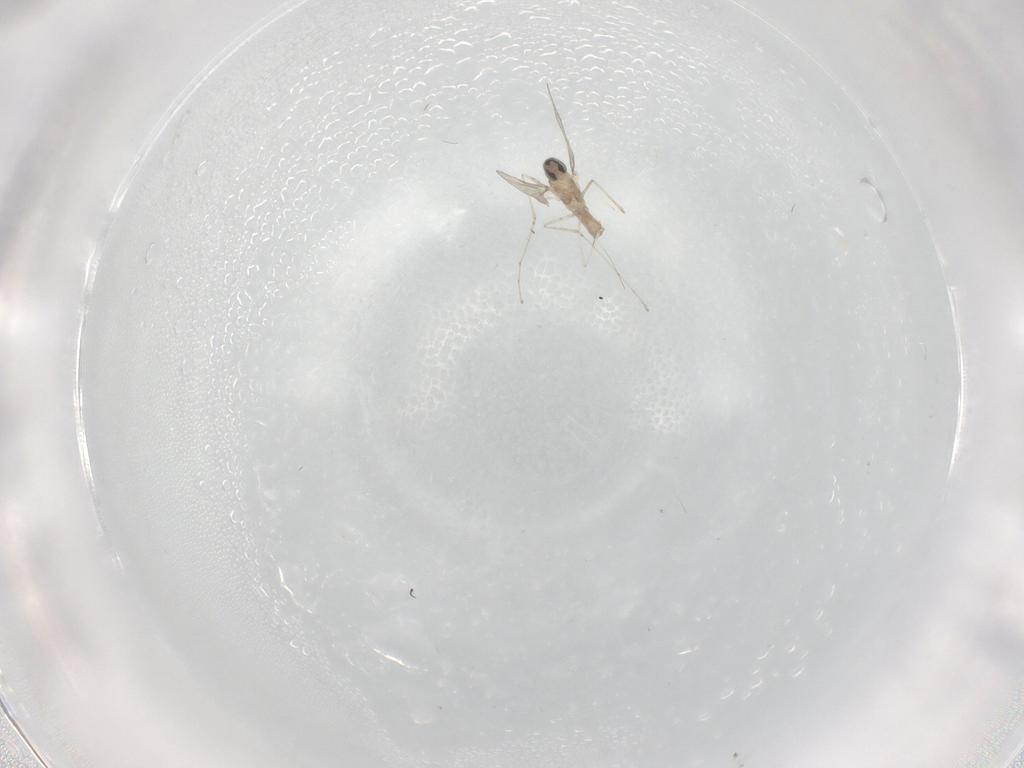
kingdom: Animalia
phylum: Arthropoda
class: Insecta
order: Diptera
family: Cecidomyiidae
